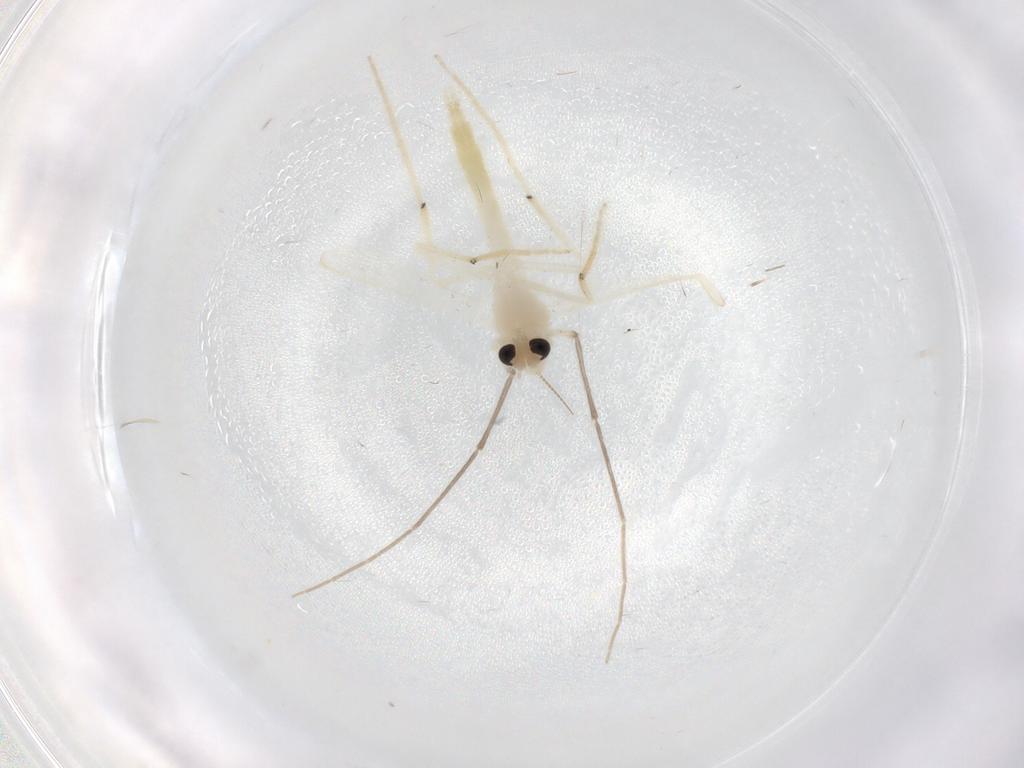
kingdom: Animalia
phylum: Arthropoda
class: Insecta
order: Diptera
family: Chironomidae
